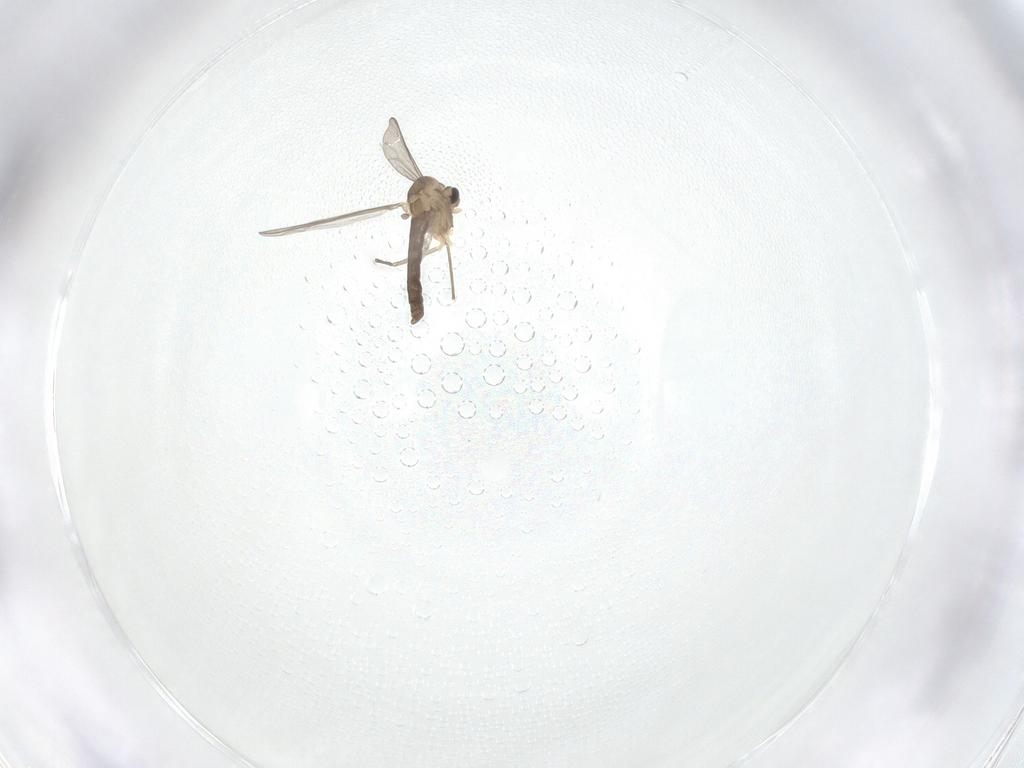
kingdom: Animalia
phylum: Arthropoda
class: Insecta
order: Diptera
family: Chironomidae
